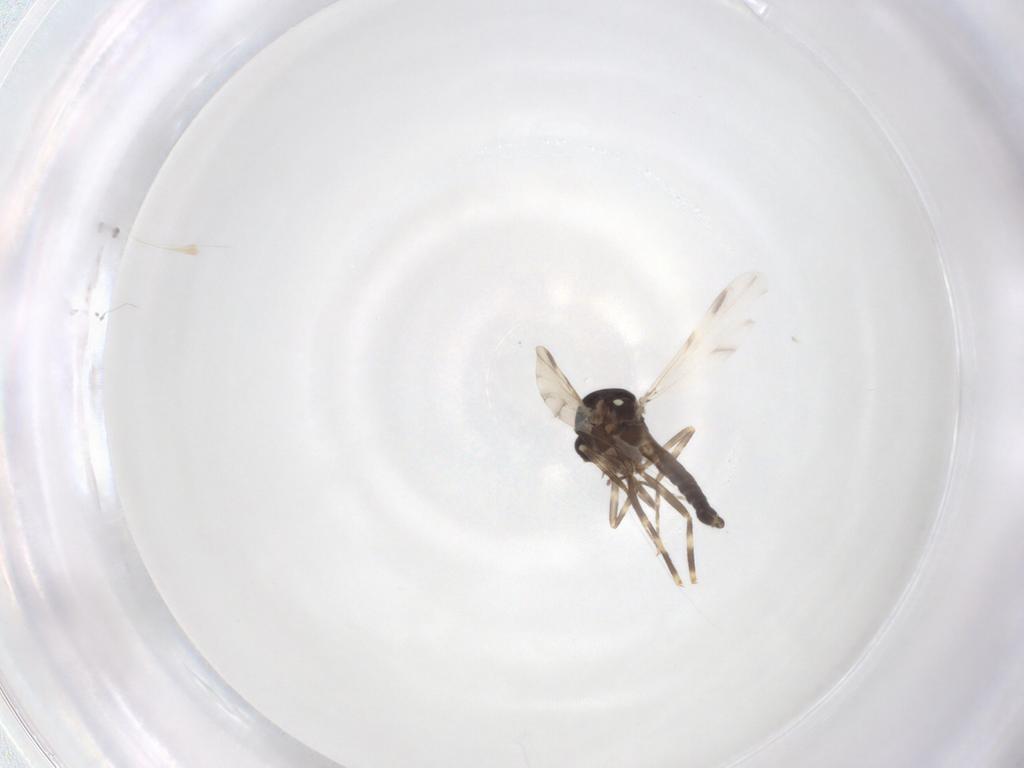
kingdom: Animalia
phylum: Arthropoda
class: Insecta
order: Diptera
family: Ceratopogonidae
